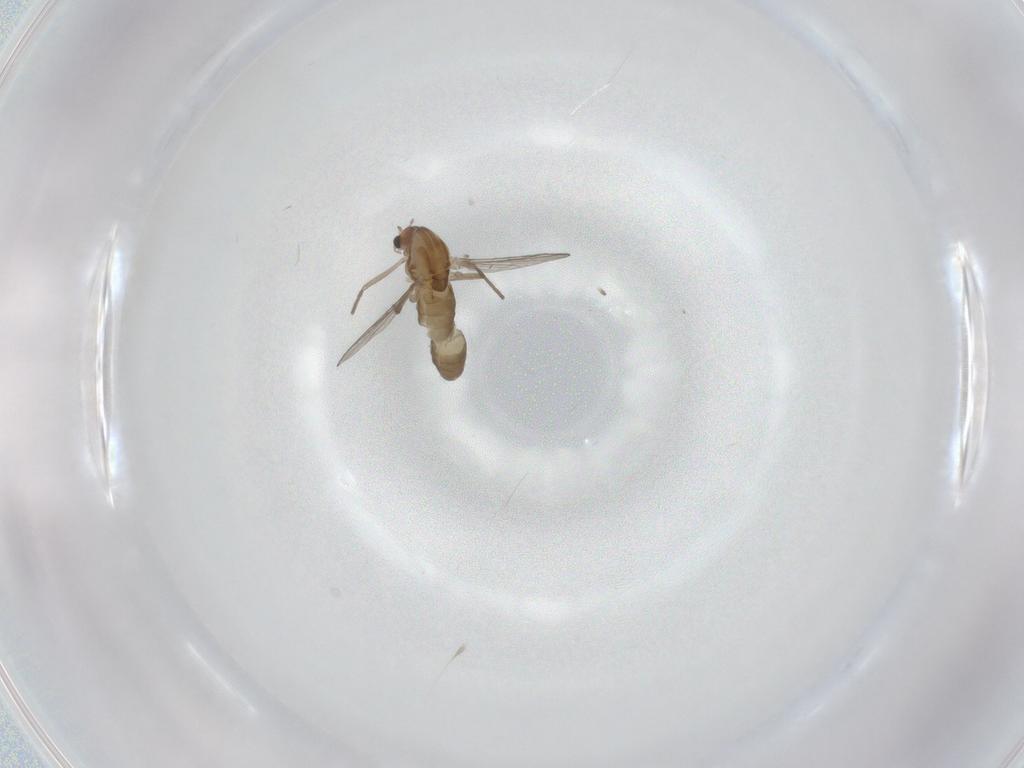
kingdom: Animalia
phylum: Arthropoda
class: Insecta
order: Diptera
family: Chironomidae
